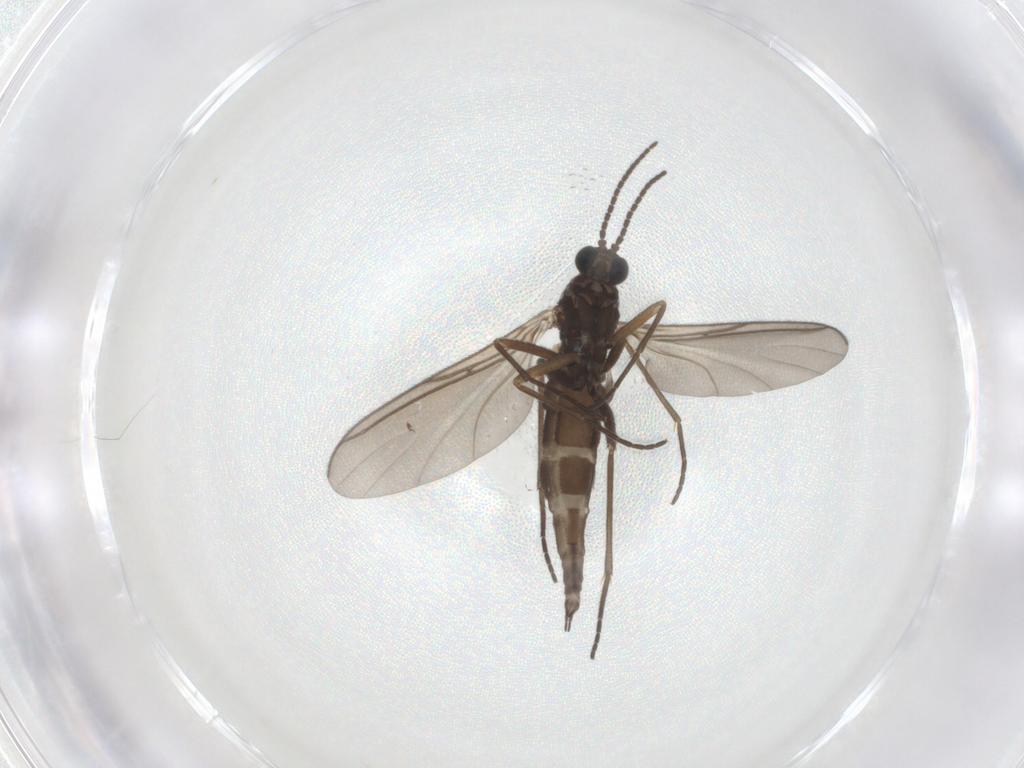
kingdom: Animalia
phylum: Arthropoda
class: Insecta
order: Diptera
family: Sciaridae
